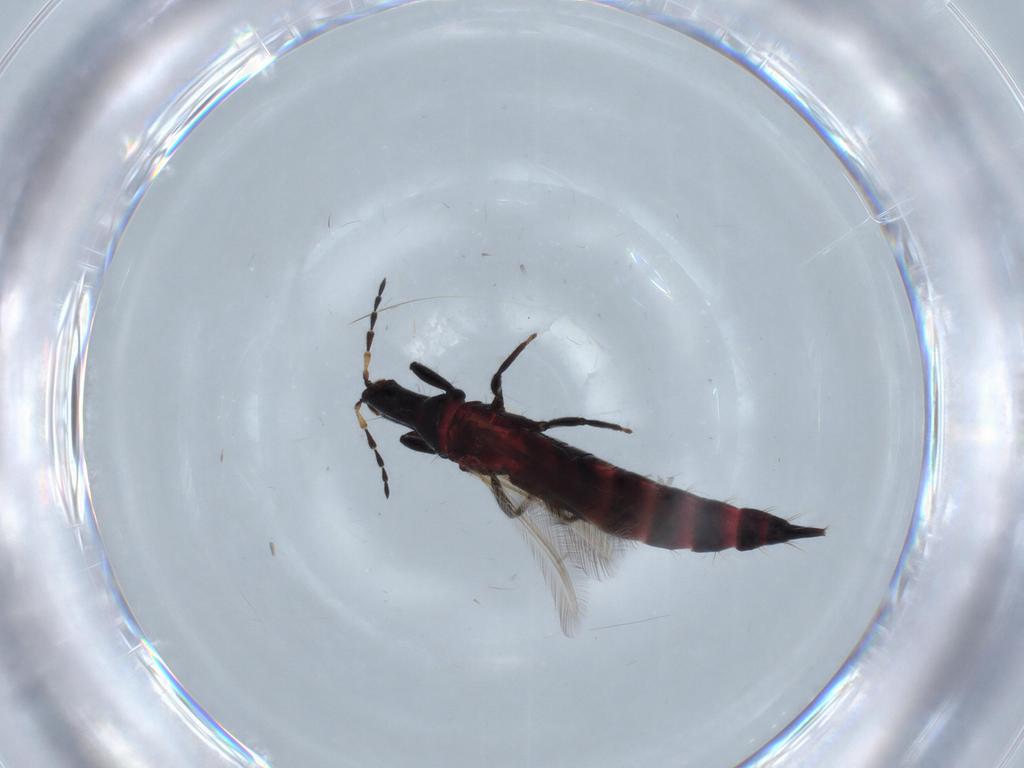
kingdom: Animalia
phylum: Arthropoda
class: Insecta
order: Thysanoptera
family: Phlaeothripidae
